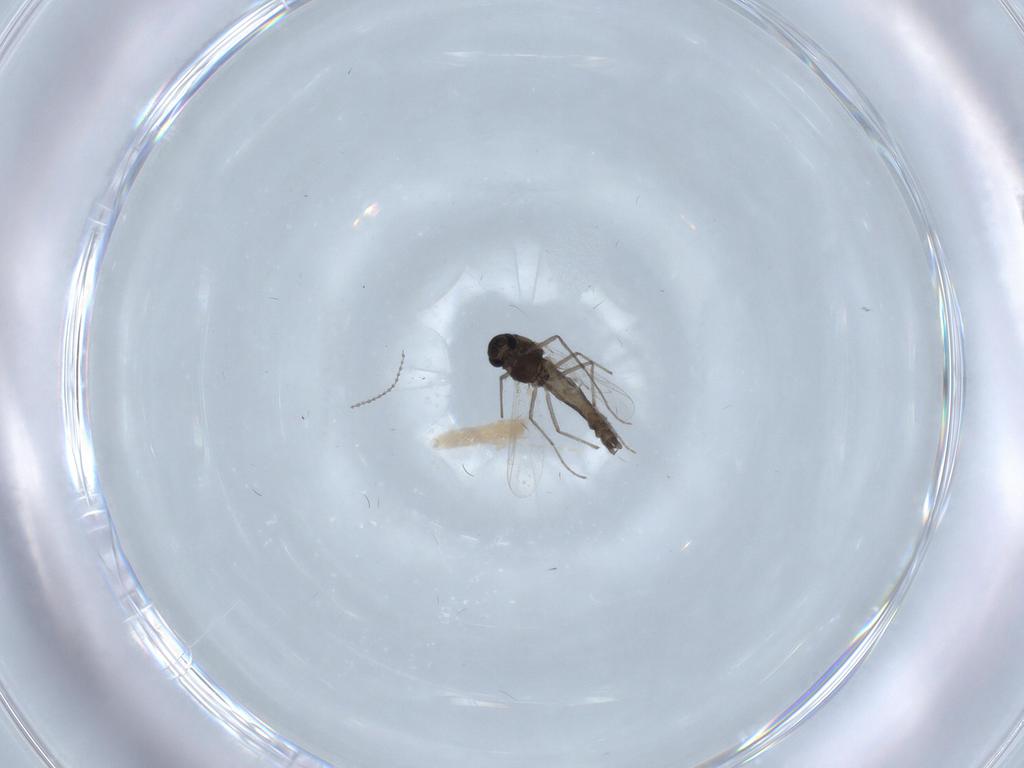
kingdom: Animalia
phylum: Arthropoda
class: Insecta
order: Diptera
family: Chironomidae
